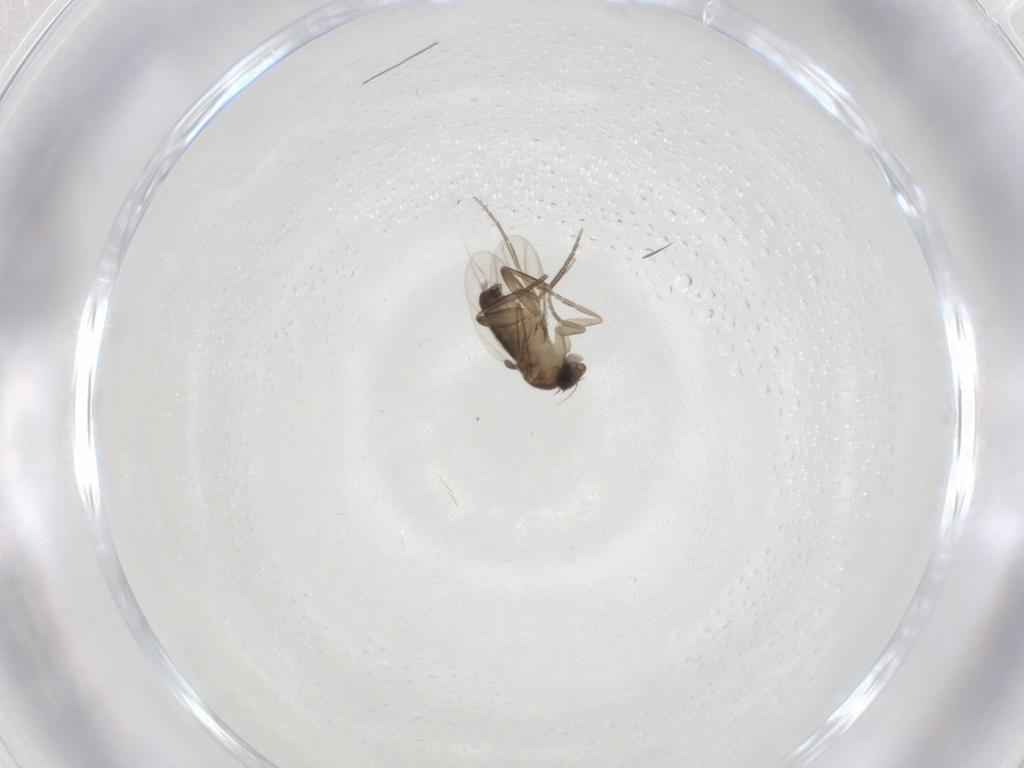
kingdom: Animalia
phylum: Arthropoda
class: Insecta
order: Diptera
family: Phoridae
